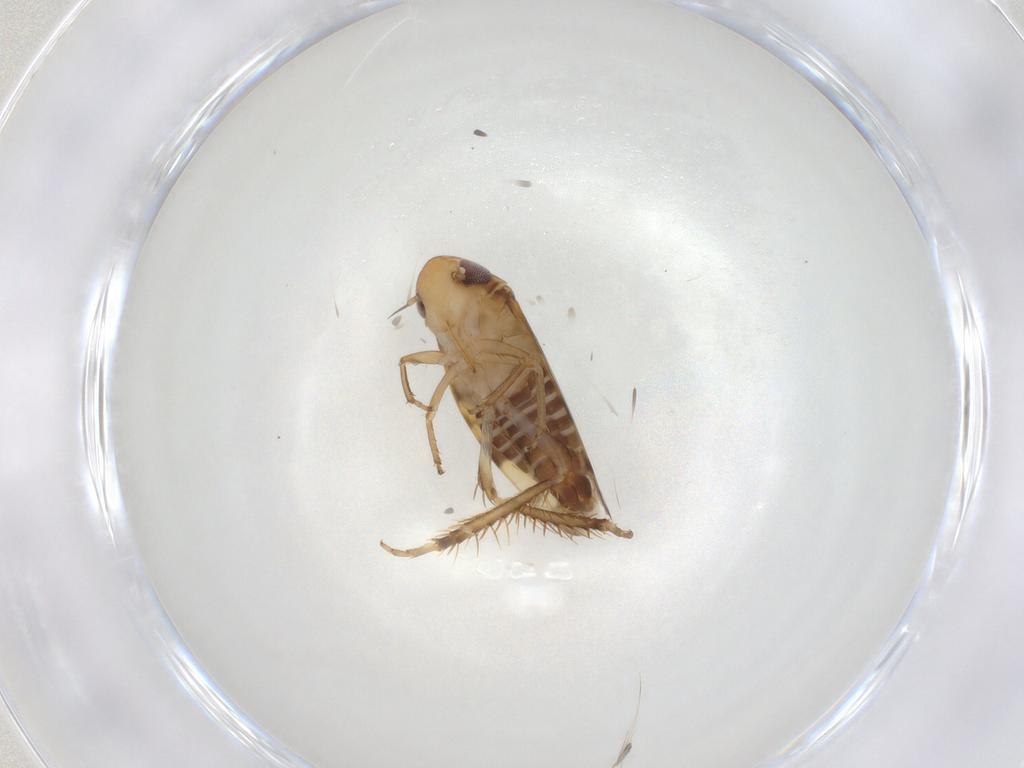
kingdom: Animalia
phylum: Arthropoda
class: Insecta
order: Hemiptera
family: Cicadellidae
